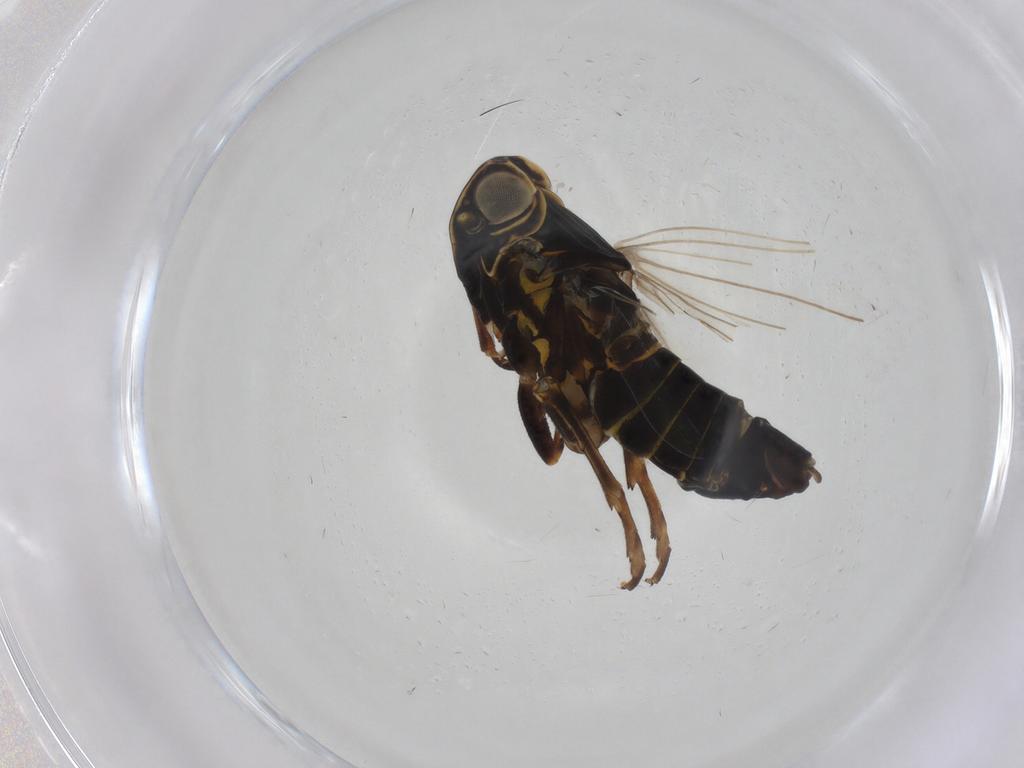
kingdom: Animalia
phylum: Arthropoda
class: Insecta
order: Hemiptera
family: Cixiidae
